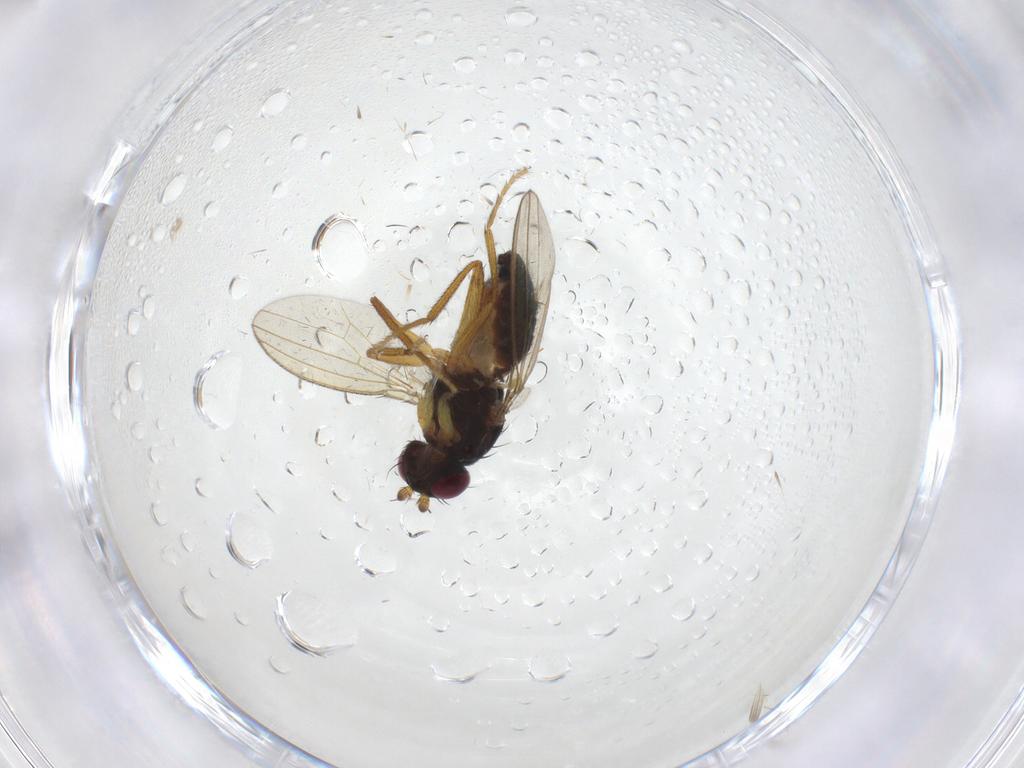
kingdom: Animalia
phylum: Arthropoda
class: Insecta
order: Diptera
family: Pseudopomyzidae
